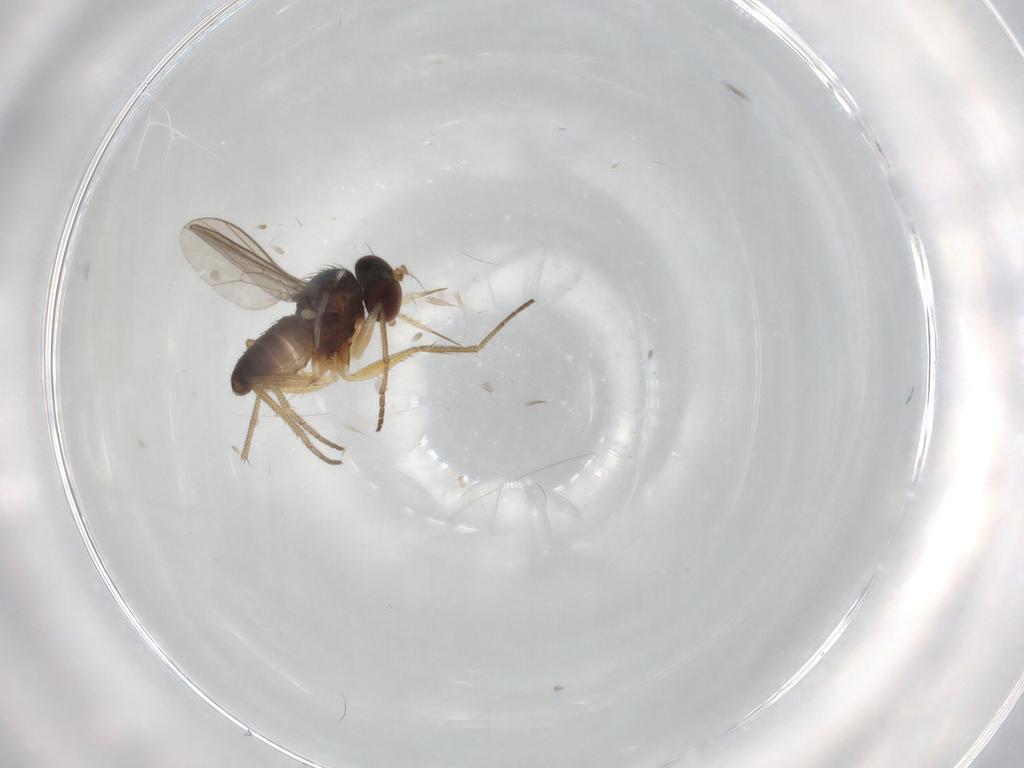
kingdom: Animalia
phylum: Arthropoda
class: Insecta
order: Diptera
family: Dolichopodidae
